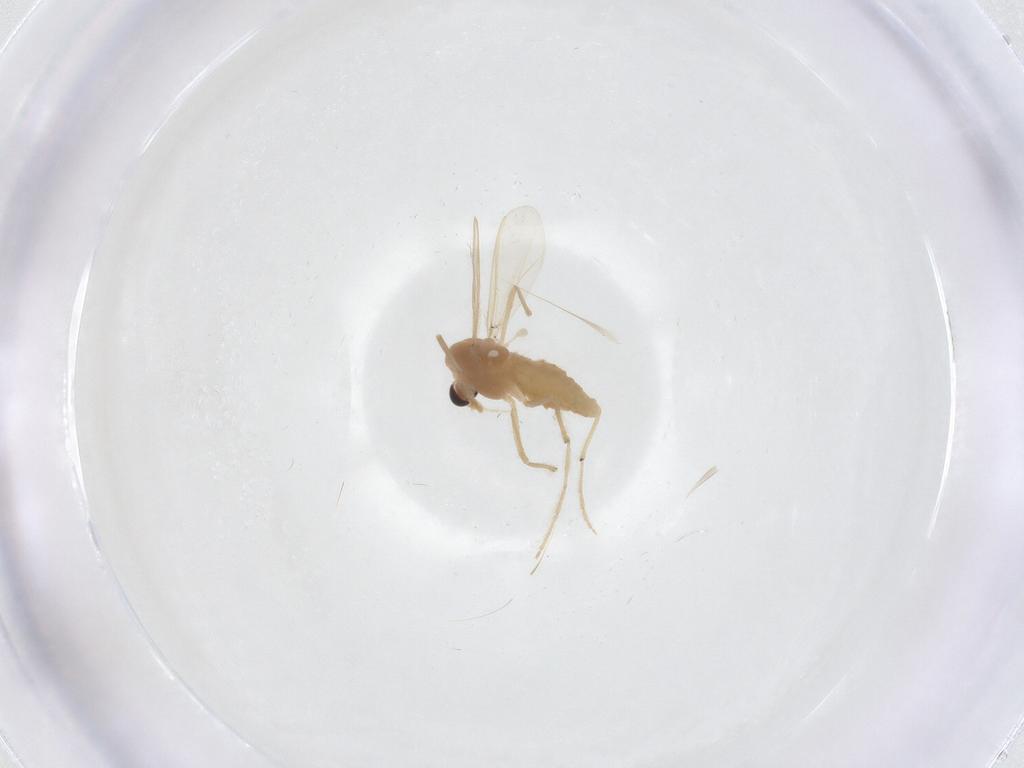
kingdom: Animalia
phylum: Arthropoda
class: Insecta
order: Diptera
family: Chironomidae
